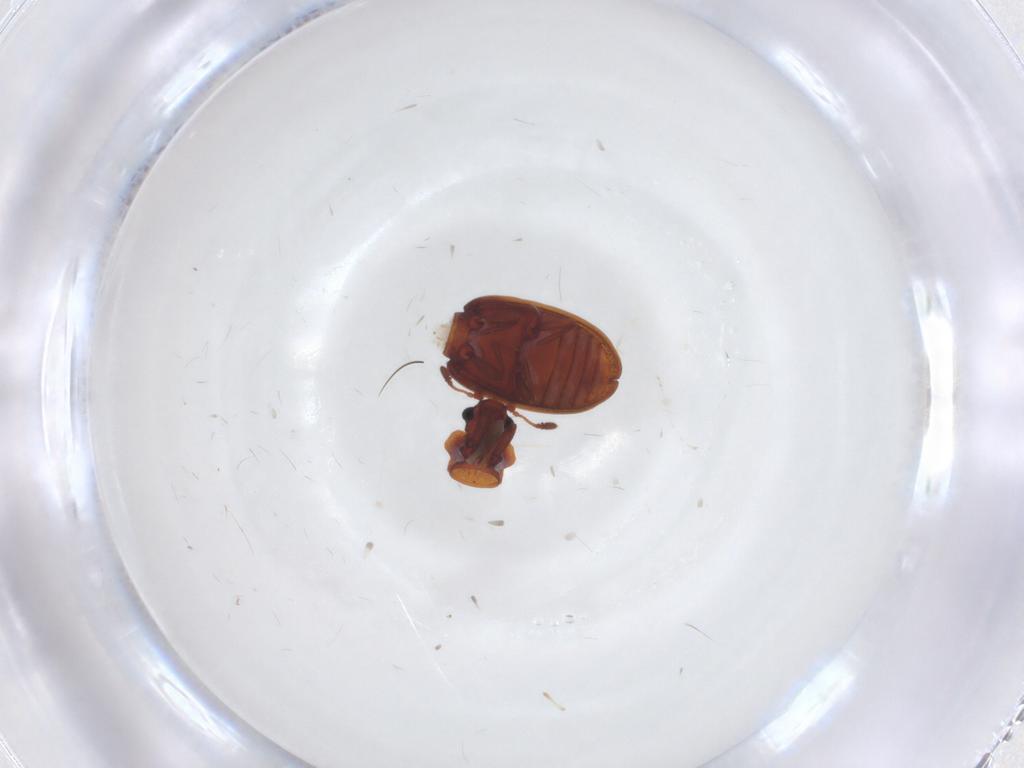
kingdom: Animalia
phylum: Arthropoda
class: Insecta
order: Coleoptera
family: Latridiidae
